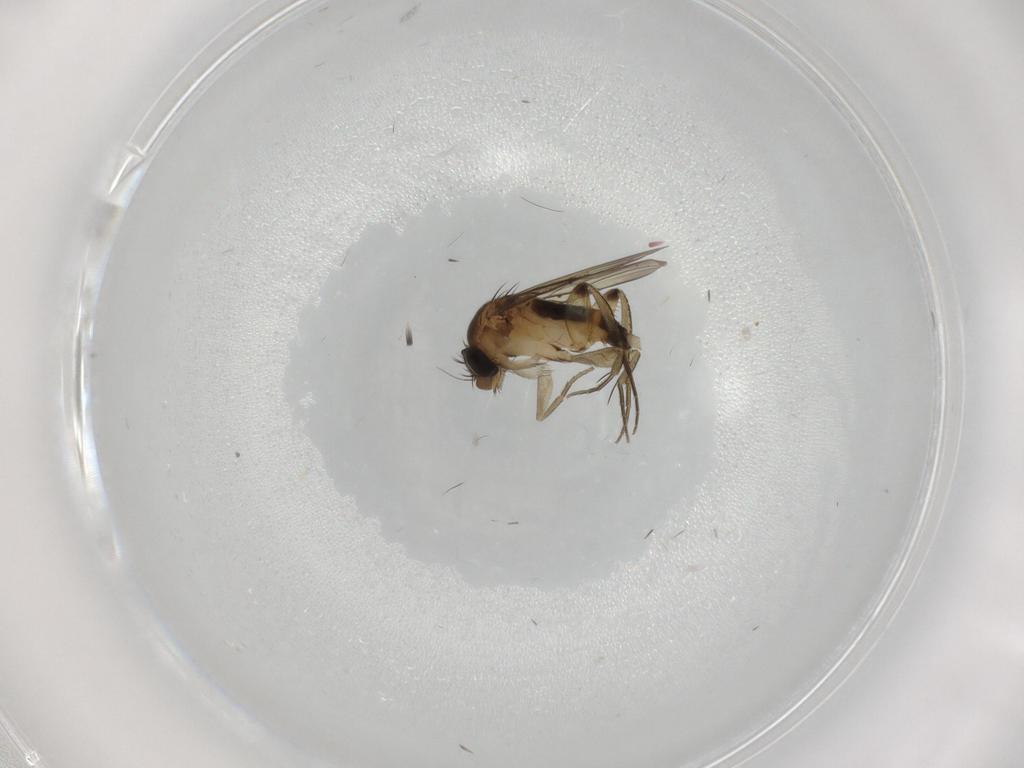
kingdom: Animalia
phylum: Arthropoda
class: Insecta
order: Diptera
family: Phoridae
